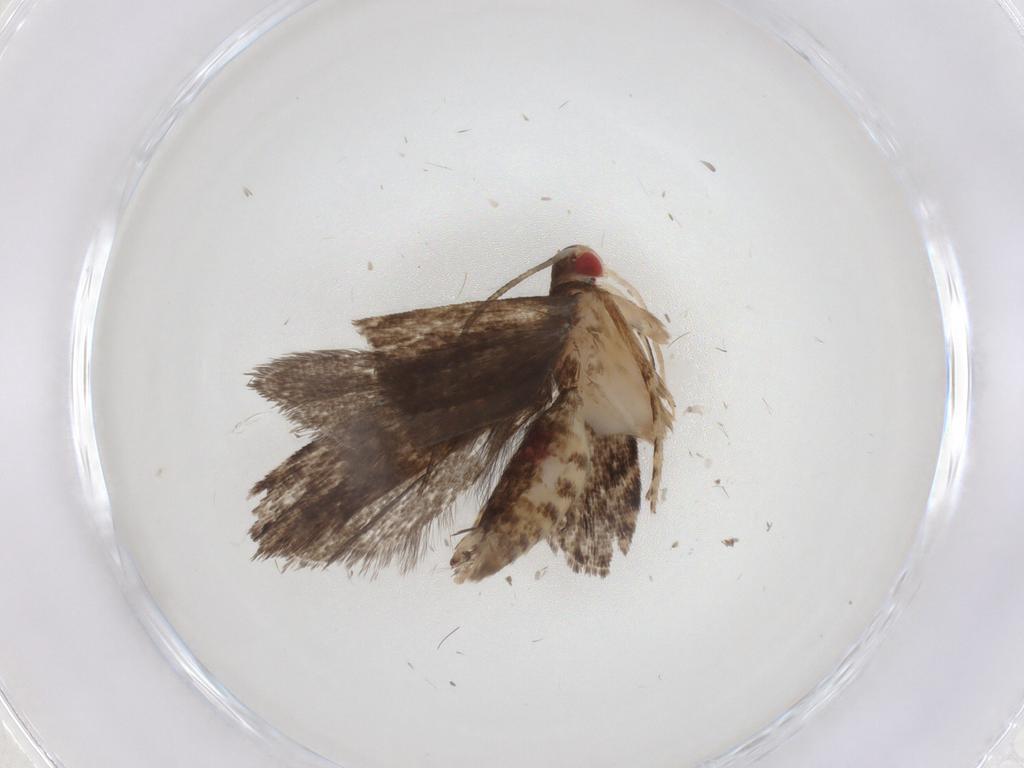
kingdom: Animalia
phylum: Arthropoda
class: Insecta
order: Lepidoptera
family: Gelechiidae
